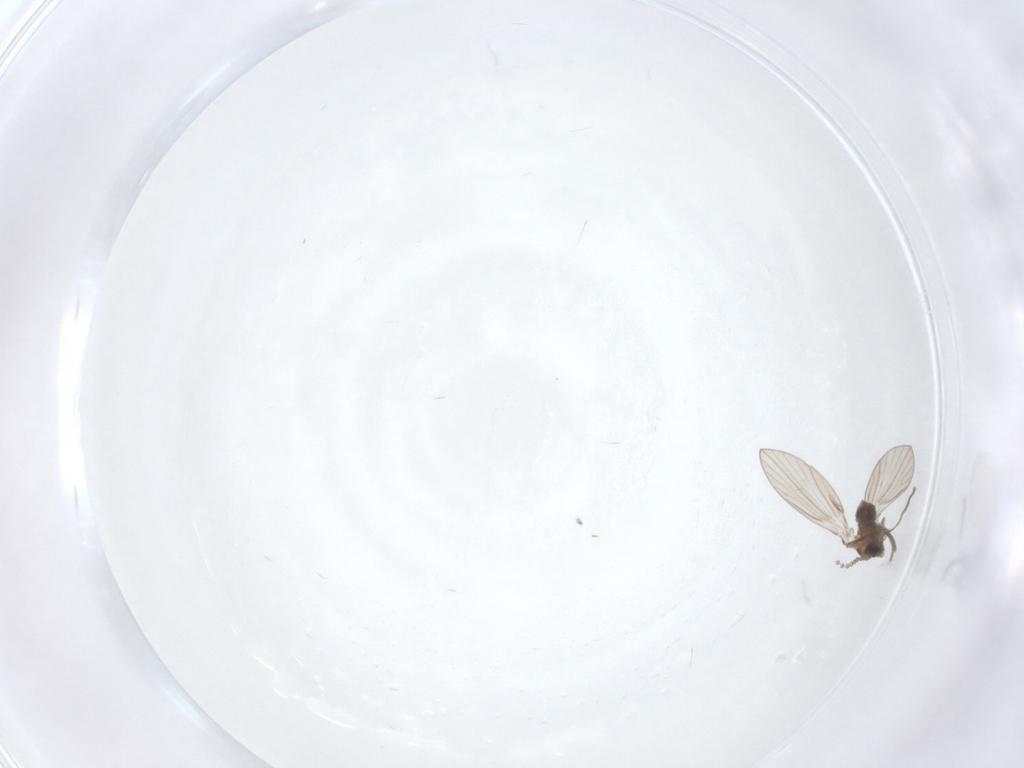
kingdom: Animalia
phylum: Arthropoda
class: Insecta
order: Diptera
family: Psychodidae
